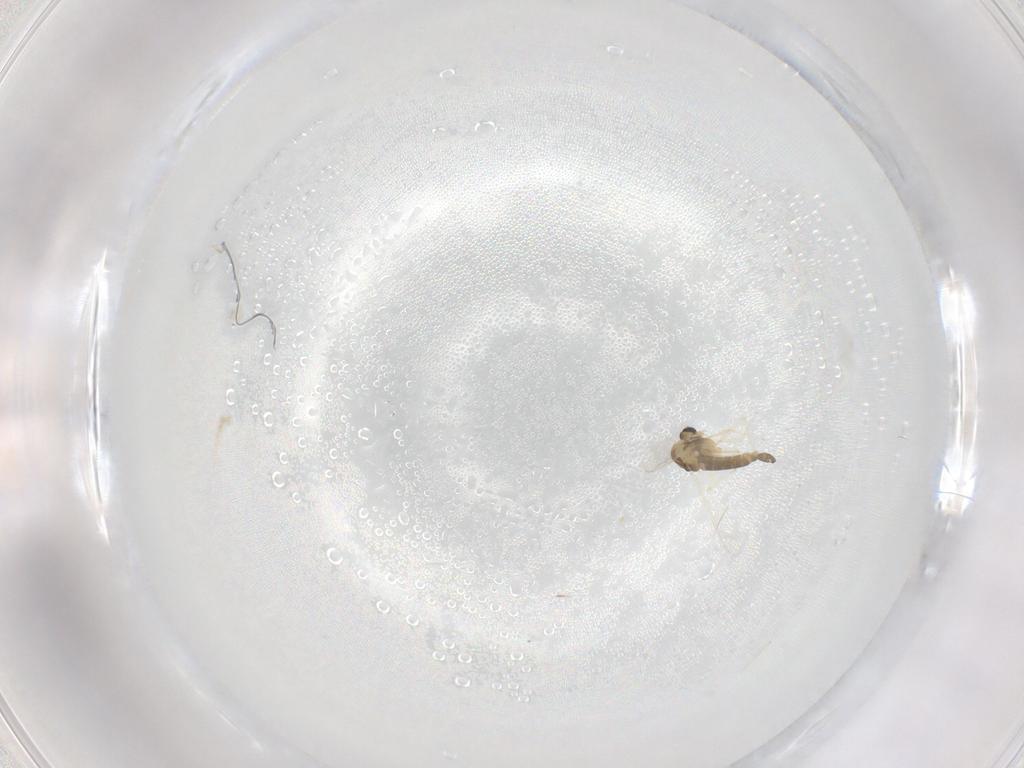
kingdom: Animalia
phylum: Arthropoda
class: Insecta
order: Diptera
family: Chironomidae
